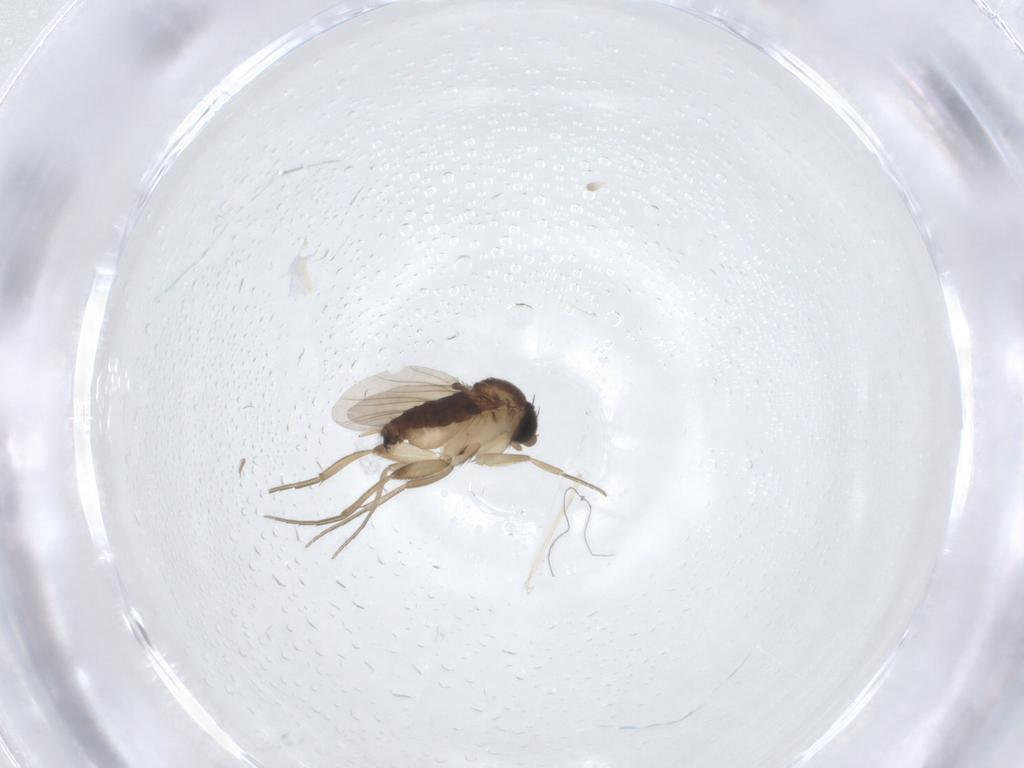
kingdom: Animalia
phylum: Arthropoda
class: Insecta
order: Diptera
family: Phoridae
